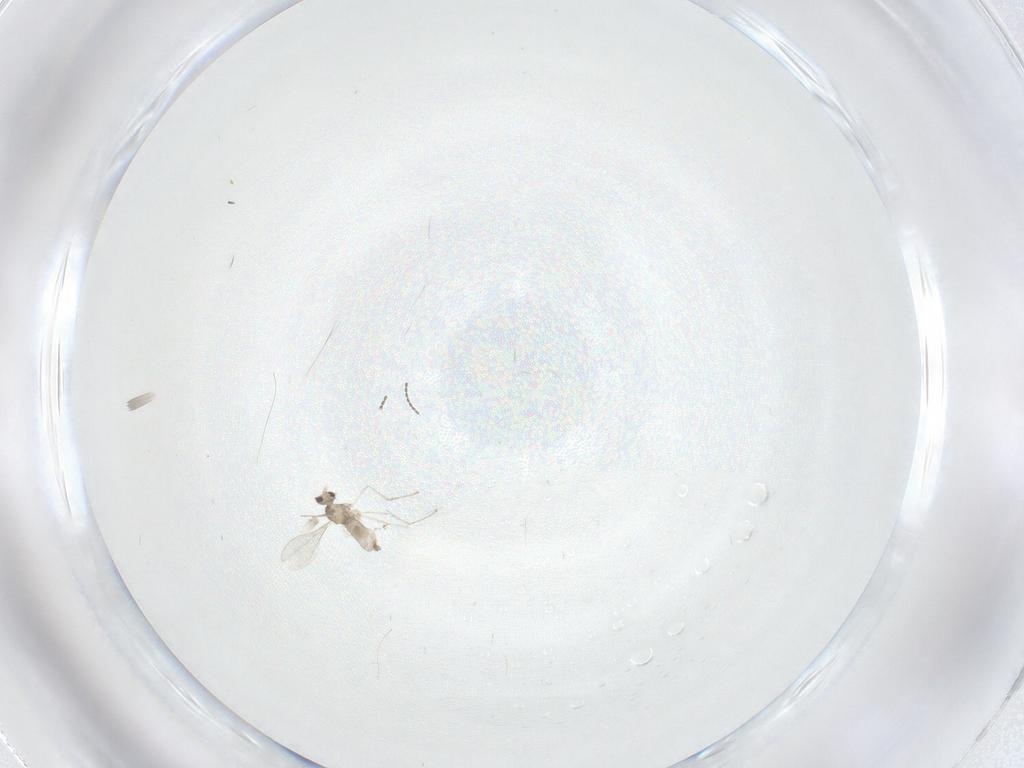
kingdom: Animalia
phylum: Arthropoda
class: Insecta
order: Diptera
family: Cecidomyiidae
